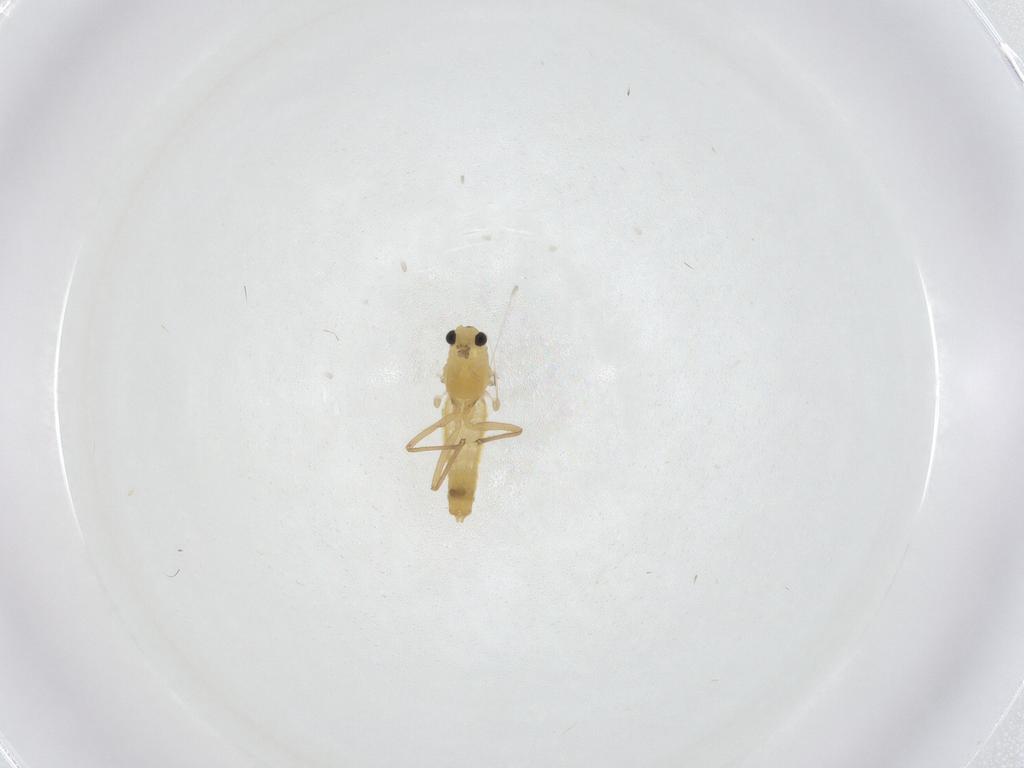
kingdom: Animalia
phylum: Arthropoda
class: Insecta
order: Diptera
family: Chironomidae
